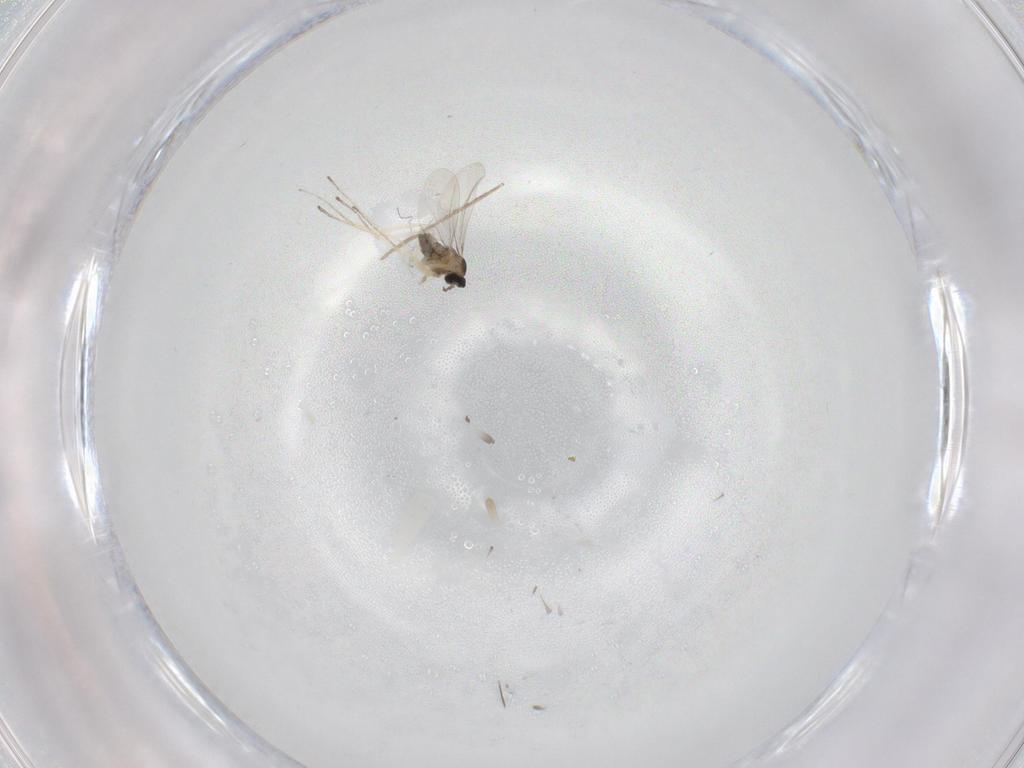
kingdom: Animalia
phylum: Arthropoda
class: Insecta
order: Diptera
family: Cecidomyiidae
